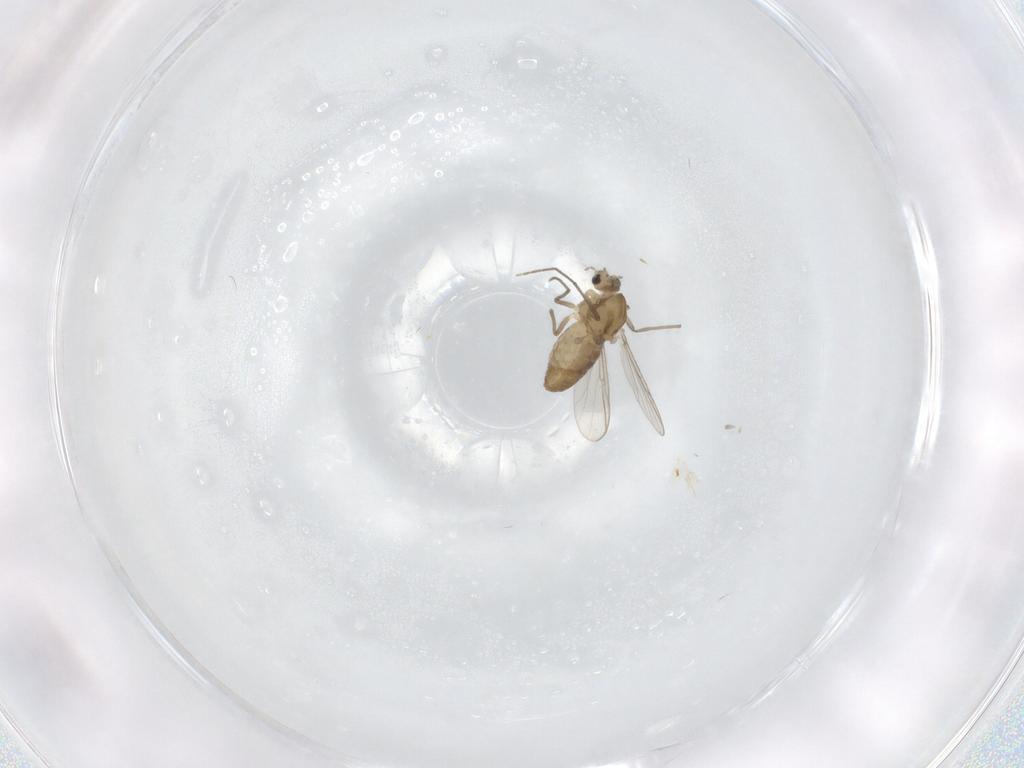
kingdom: Animalia
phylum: Arthropoda
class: Insecta
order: Diptera
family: Chironomidae
